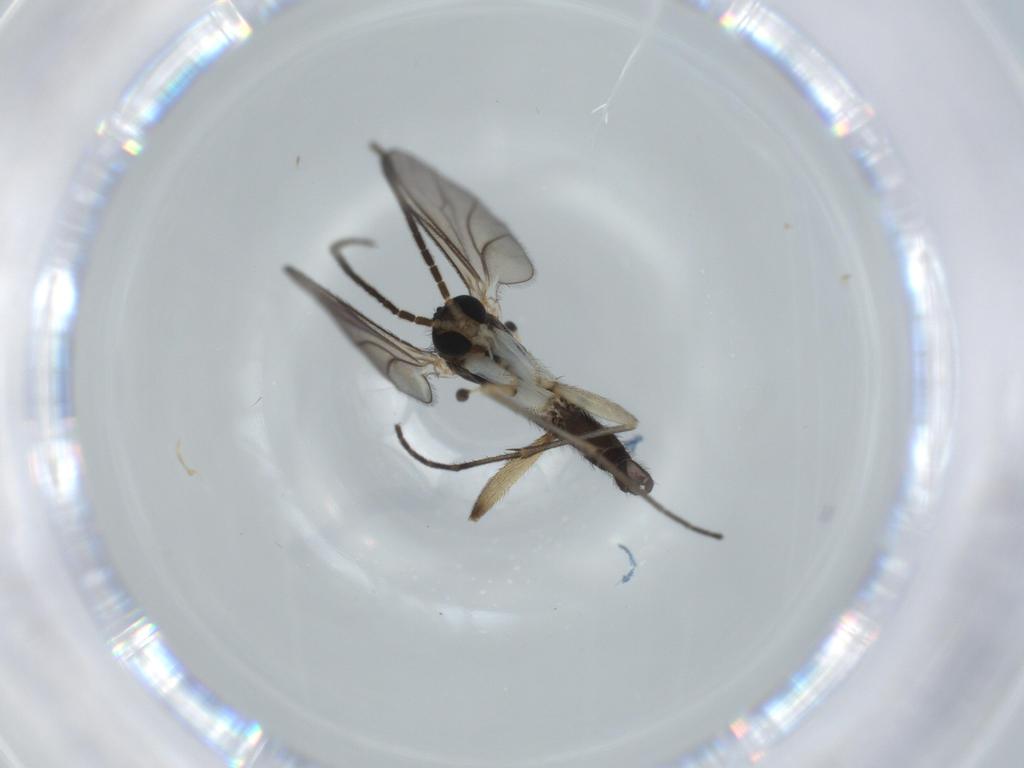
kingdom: Animalia
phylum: Arthropoda
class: Insecta
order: Diptera
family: Sciaridae
